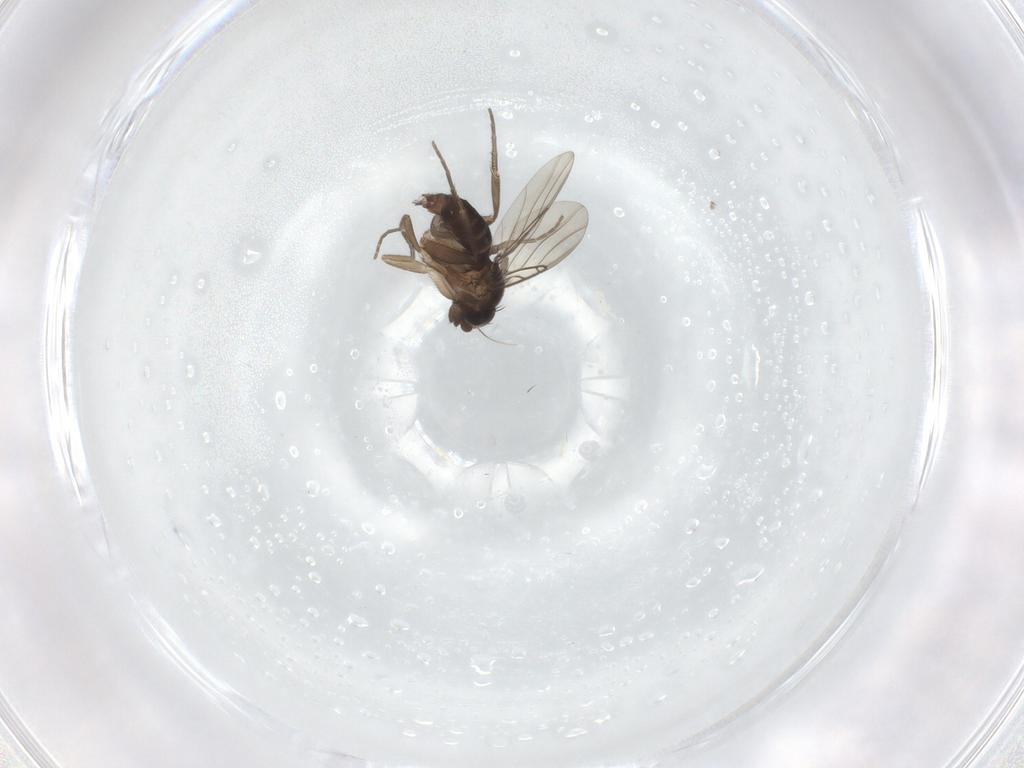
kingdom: Animalia
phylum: Arthropoda
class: Insecta
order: Diptera
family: Phoridae
